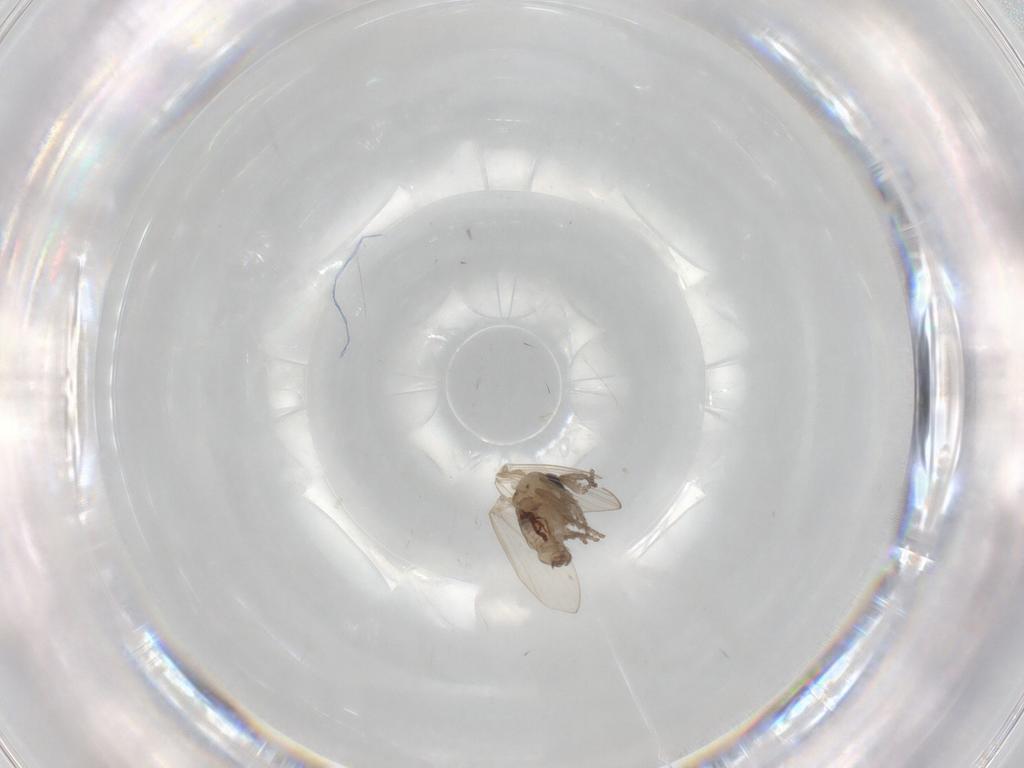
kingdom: Animalia
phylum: Arthropoda
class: Insecta
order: Diptera
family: Psychodidae
